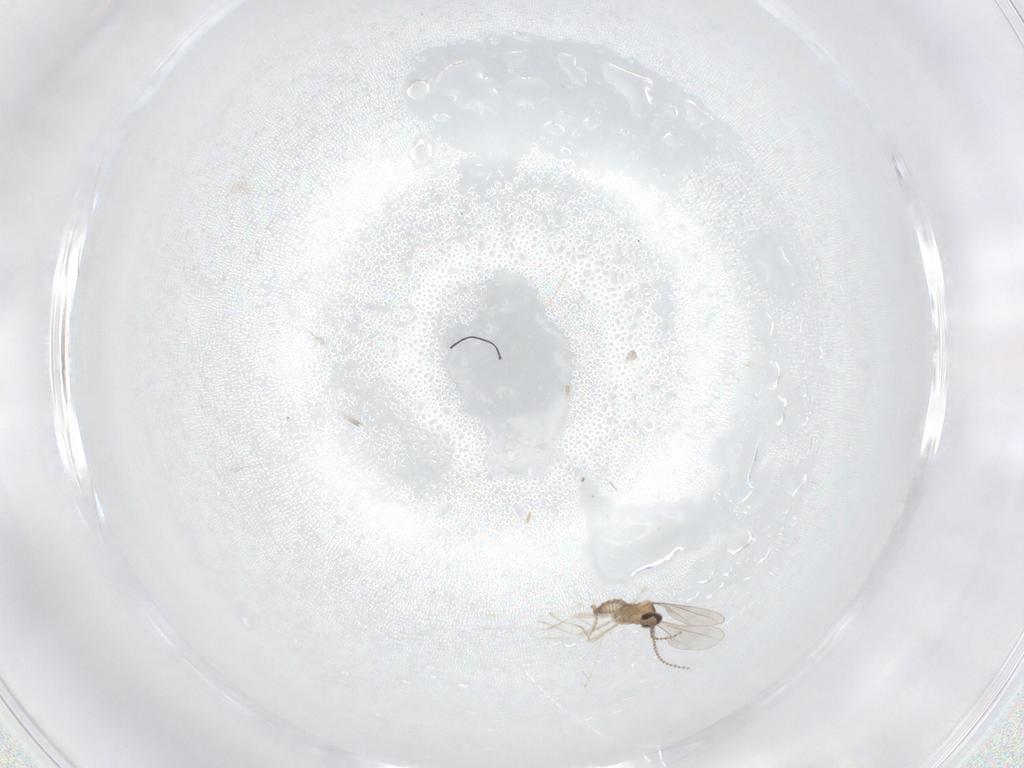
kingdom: Animalia
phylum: Arthropoda
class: Insecta
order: Diptera
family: Cecidomyiidae
